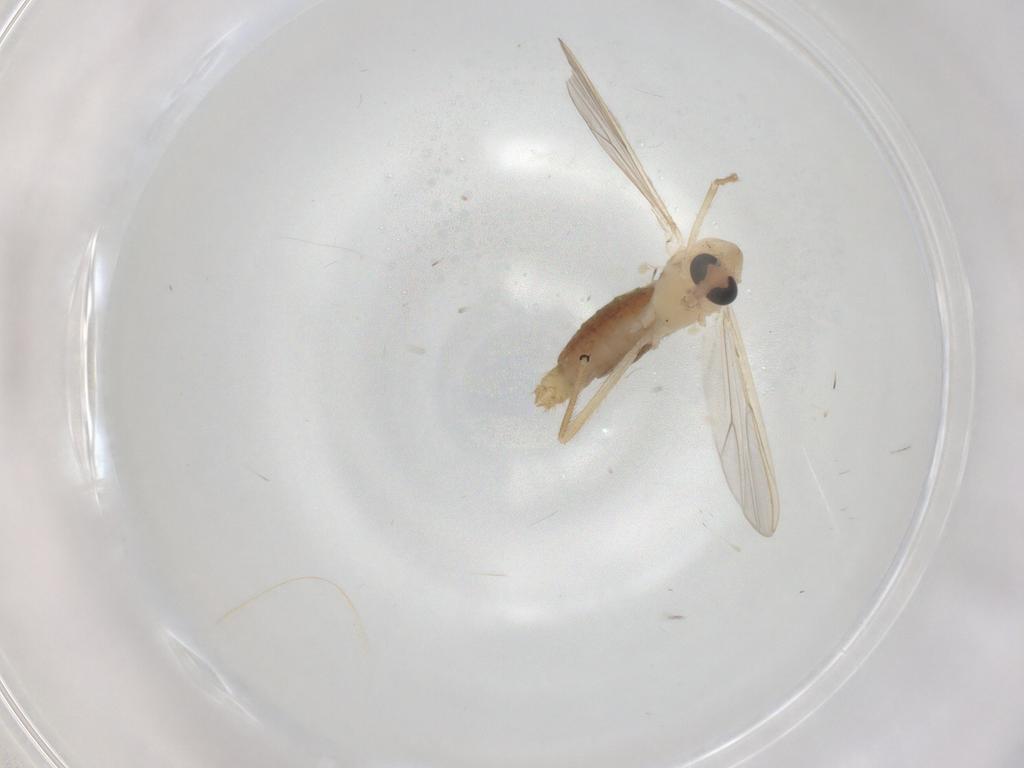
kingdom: Animalia
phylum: Arthropoda
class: Insecta
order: Diptera
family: Chironomidae
